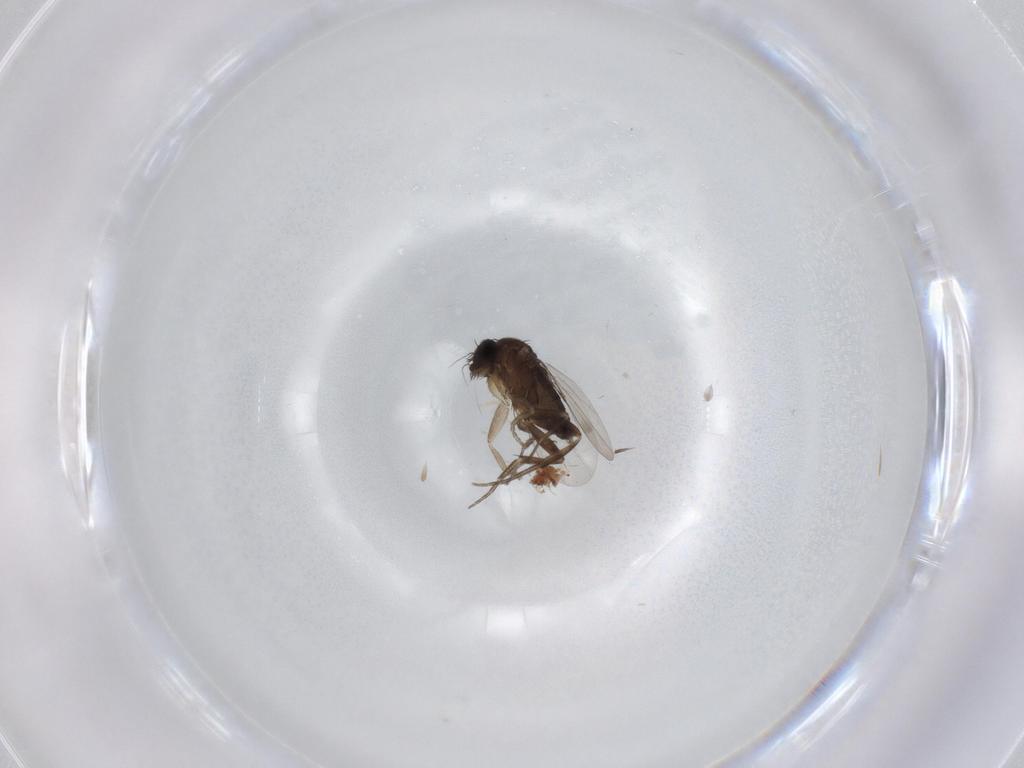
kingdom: Animalia
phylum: Arthropoda
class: Insecta
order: Diptera
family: Phoridae
